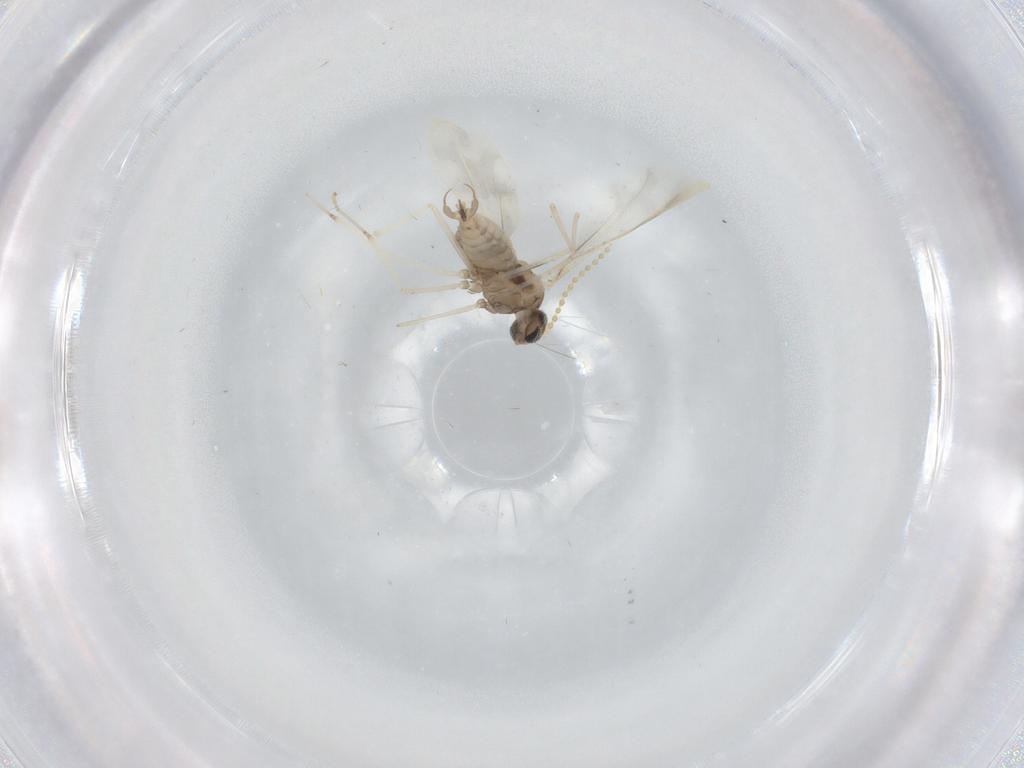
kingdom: Animalia
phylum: Arthropoda
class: Insecta
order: Diptera
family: Cecidomyiidae
